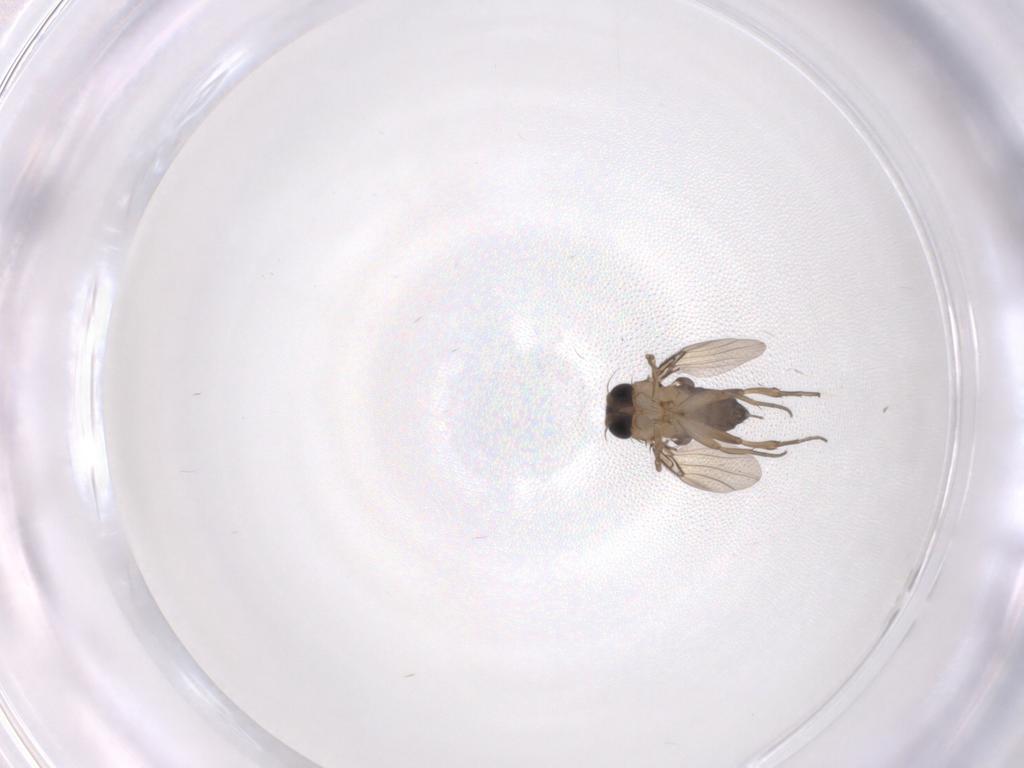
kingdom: Animalia
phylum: Arthropoda
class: Insecta
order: Diptera
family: Phoridae
